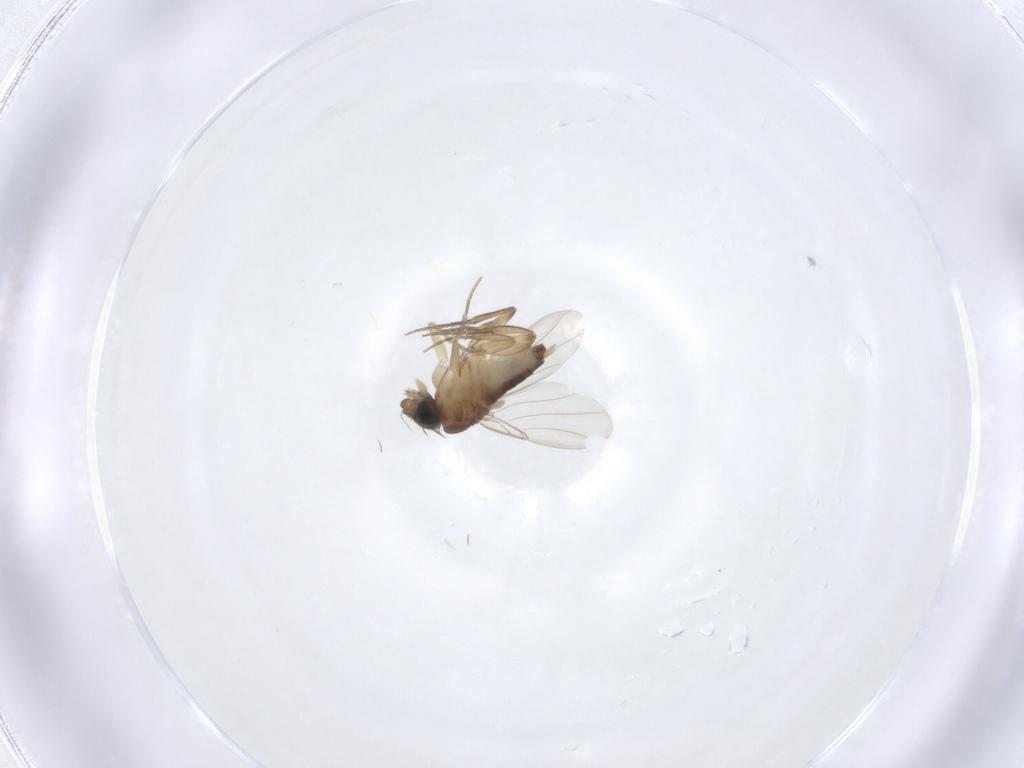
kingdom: Animalia
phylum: Arthropoda
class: Insecta
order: Diptera
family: Phoridae
